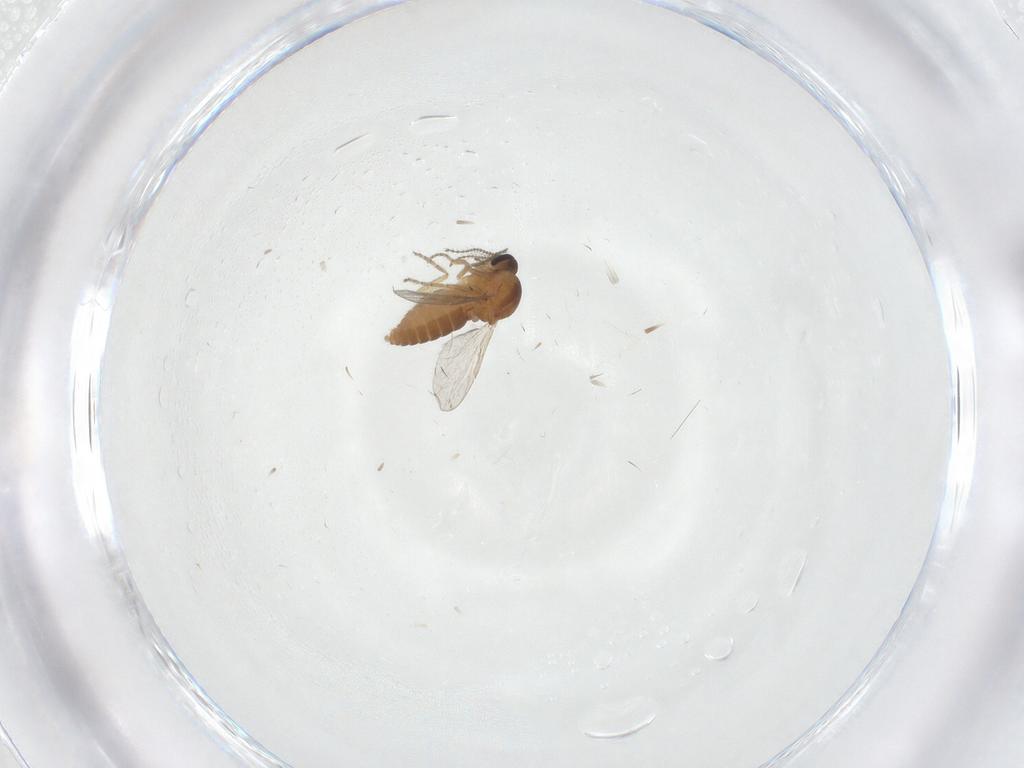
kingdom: Animalia
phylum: Arthropoda
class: Insecta
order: Diptera
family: Ceratopogonidae
